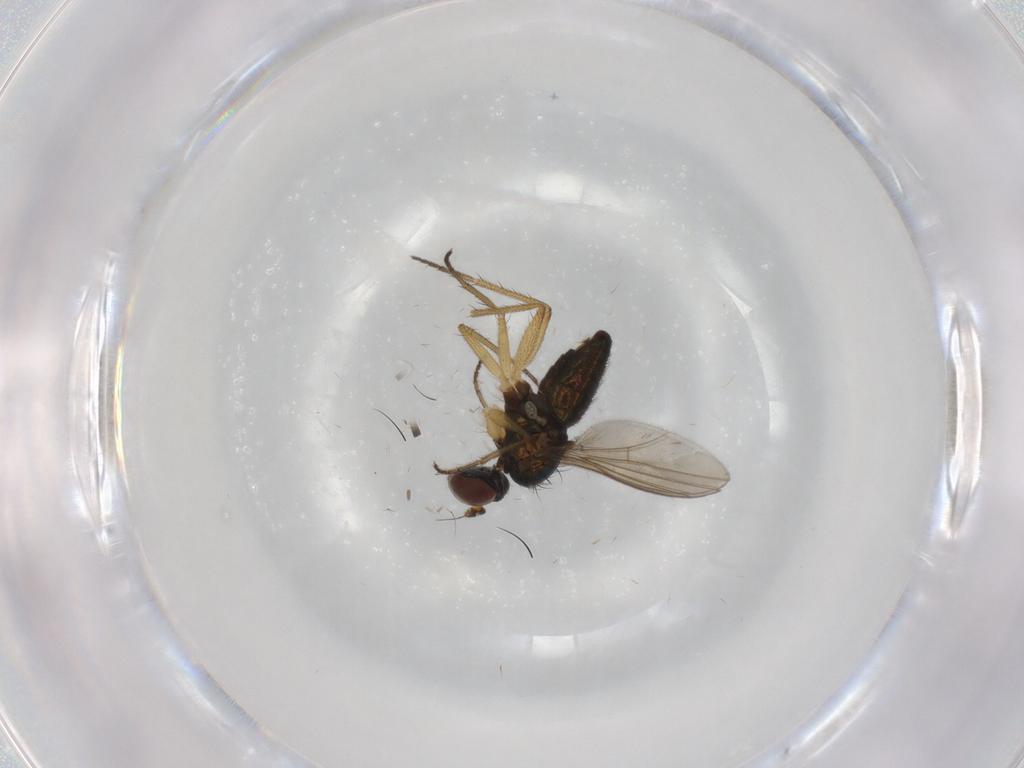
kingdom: Animalia
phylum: Arthropoda
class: Insecta
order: Diptera
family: Dolichopodidae
